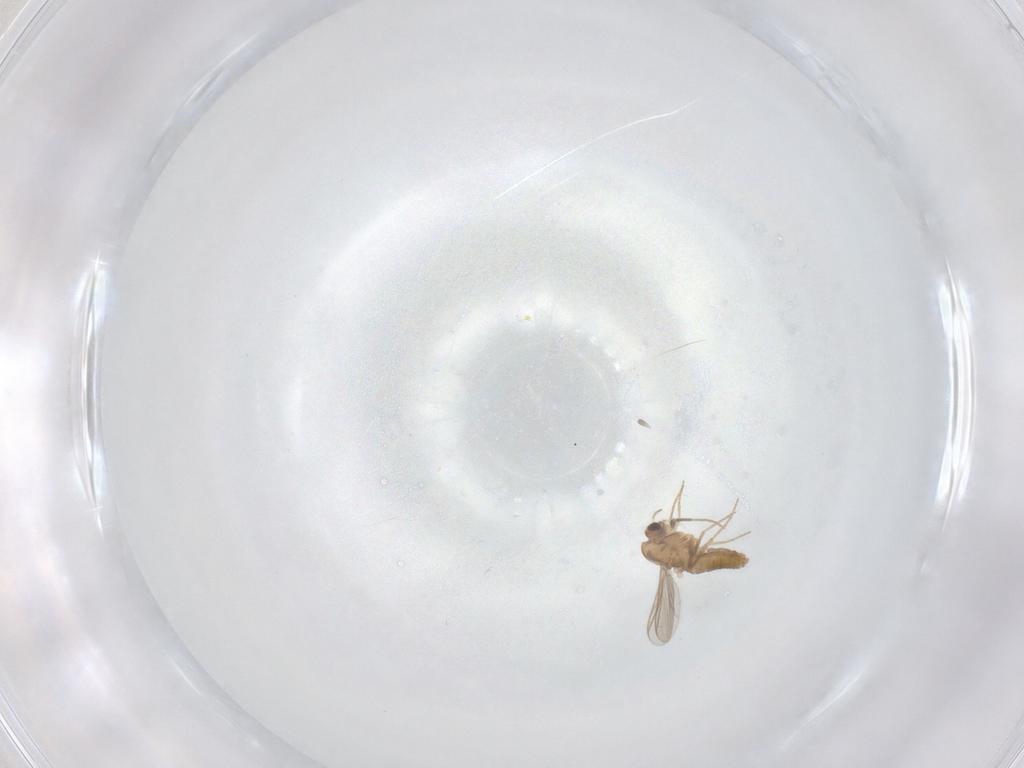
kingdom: Animalia
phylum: Arthropoda
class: Insecta
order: Diptera
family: Chironomidae
